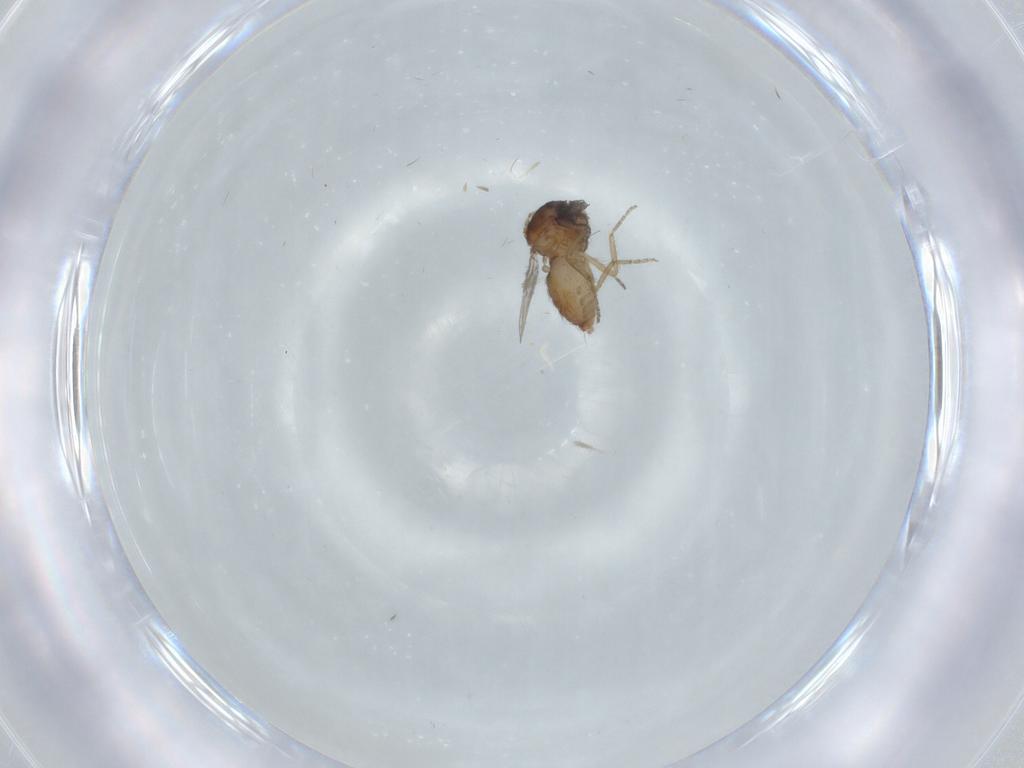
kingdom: Animalia
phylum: Arthropoda
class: Insecta
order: Diptera
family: Ceratopogonidae
